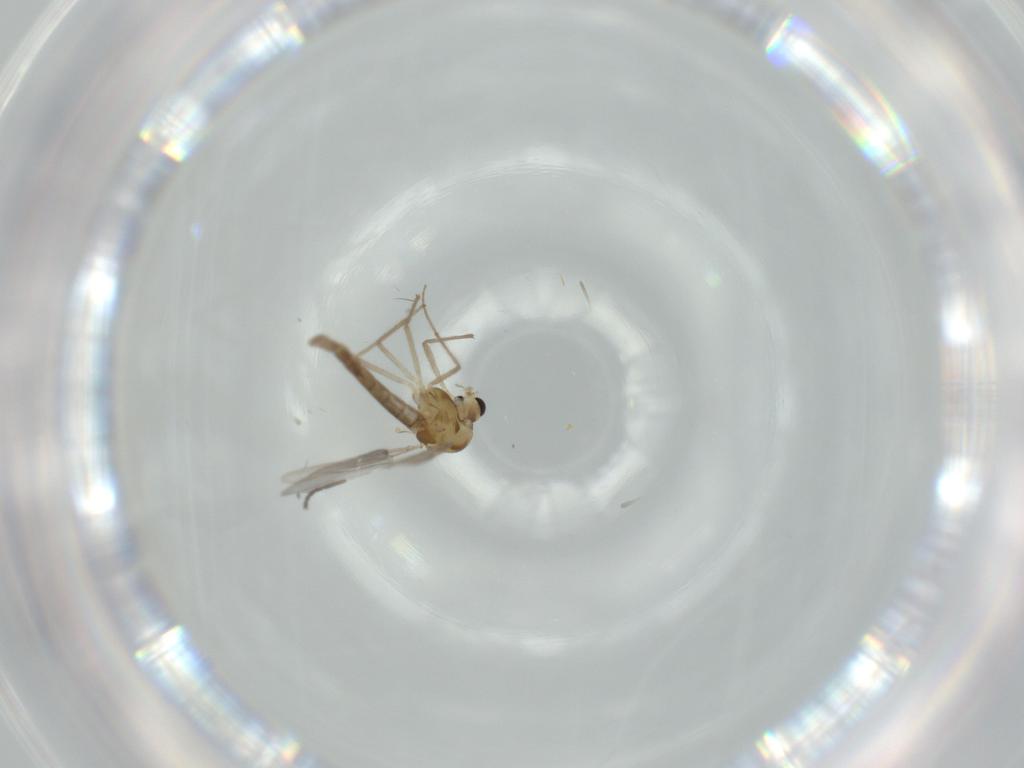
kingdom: Animalia
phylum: Arthropoda
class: Insecta
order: Diptera
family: Chironomidae
